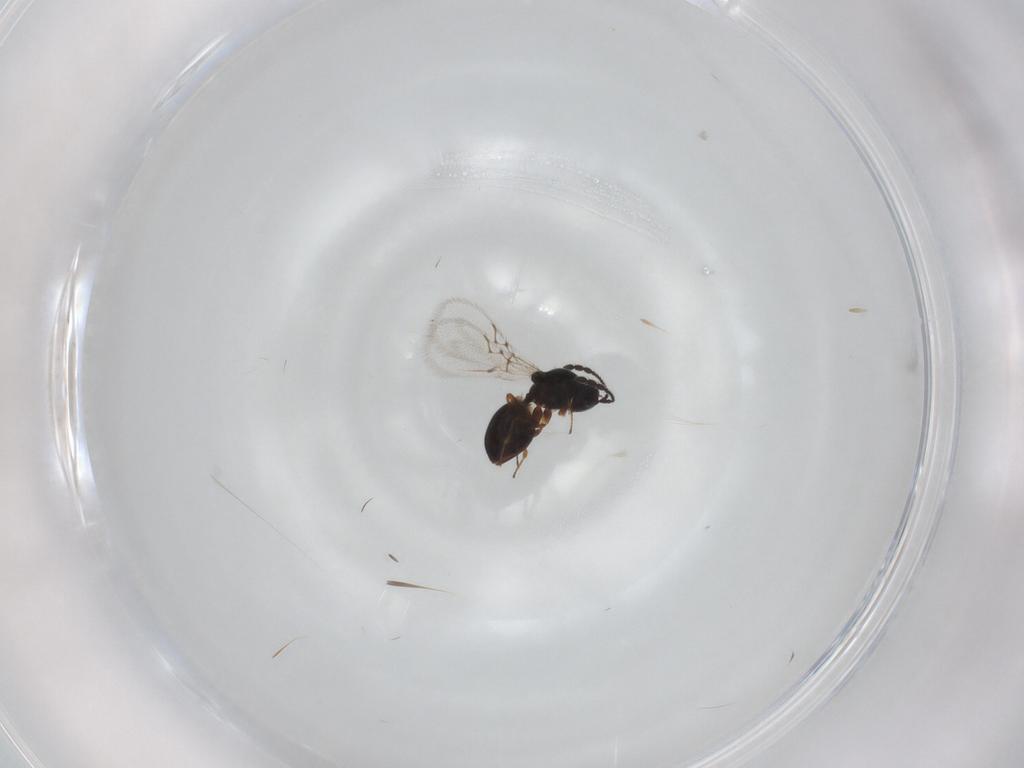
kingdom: Animalia
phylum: Arthropoda
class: Insecta
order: Hymenoptera
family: Figitidae
